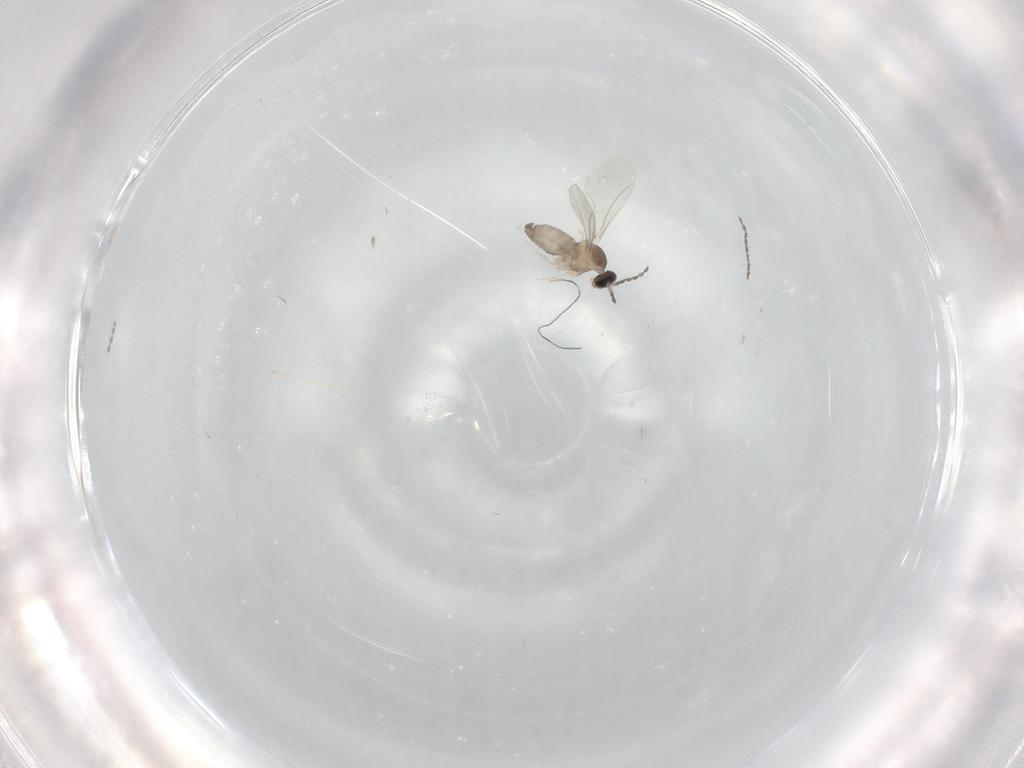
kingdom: Animalia
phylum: Arthropoda
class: Insecta
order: Diptera
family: Cecidomyiidae
